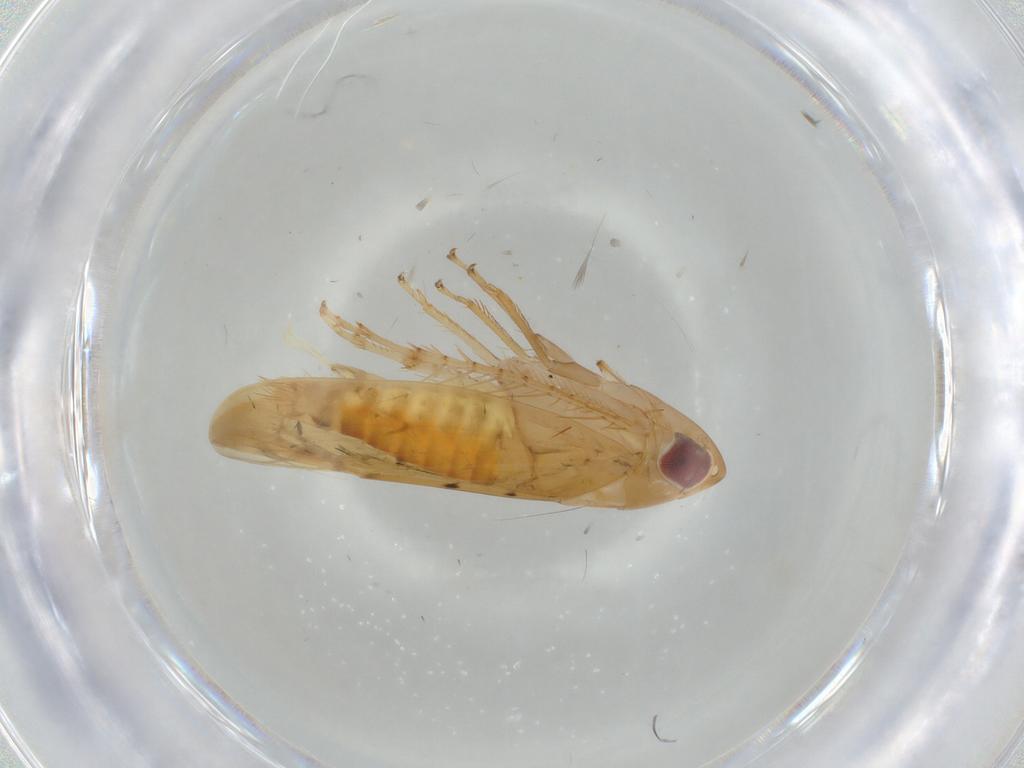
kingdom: Animalia
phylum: Arthropoda
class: Insecta
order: Hemiptera
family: Cicadellidae
